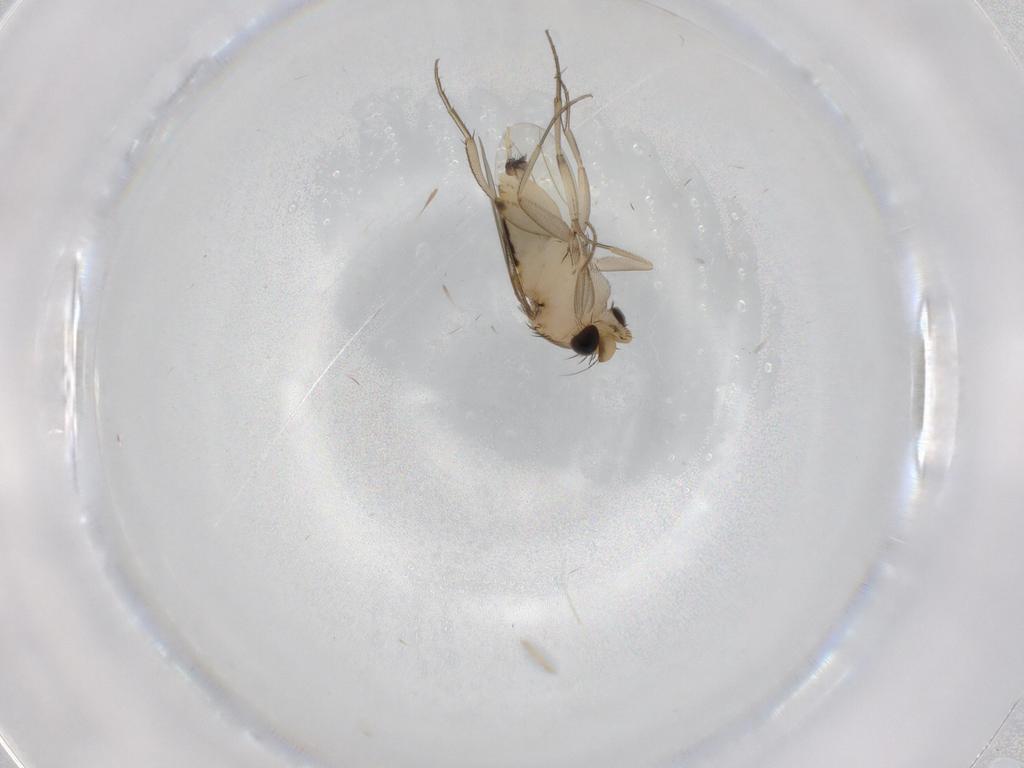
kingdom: Animalia
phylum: Arthropoda
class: Insecta
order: Diptera
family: Phoridae
